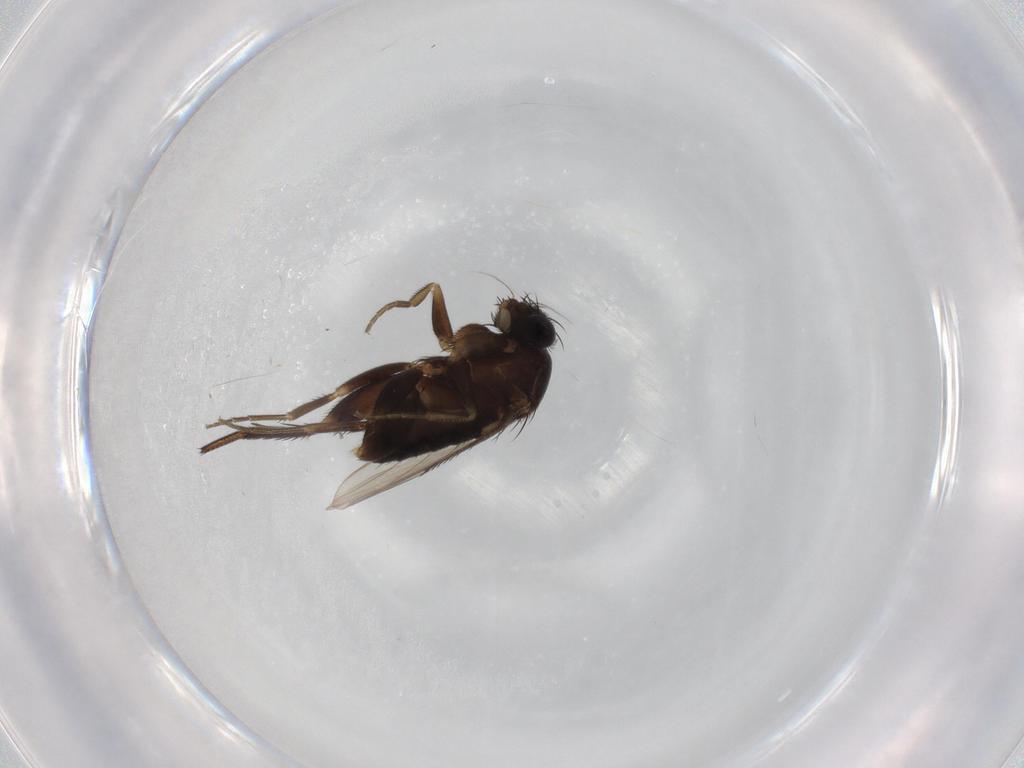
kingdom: Animalia
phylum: Arthropoda
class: Insecta
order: Diptera
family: Phoridae
